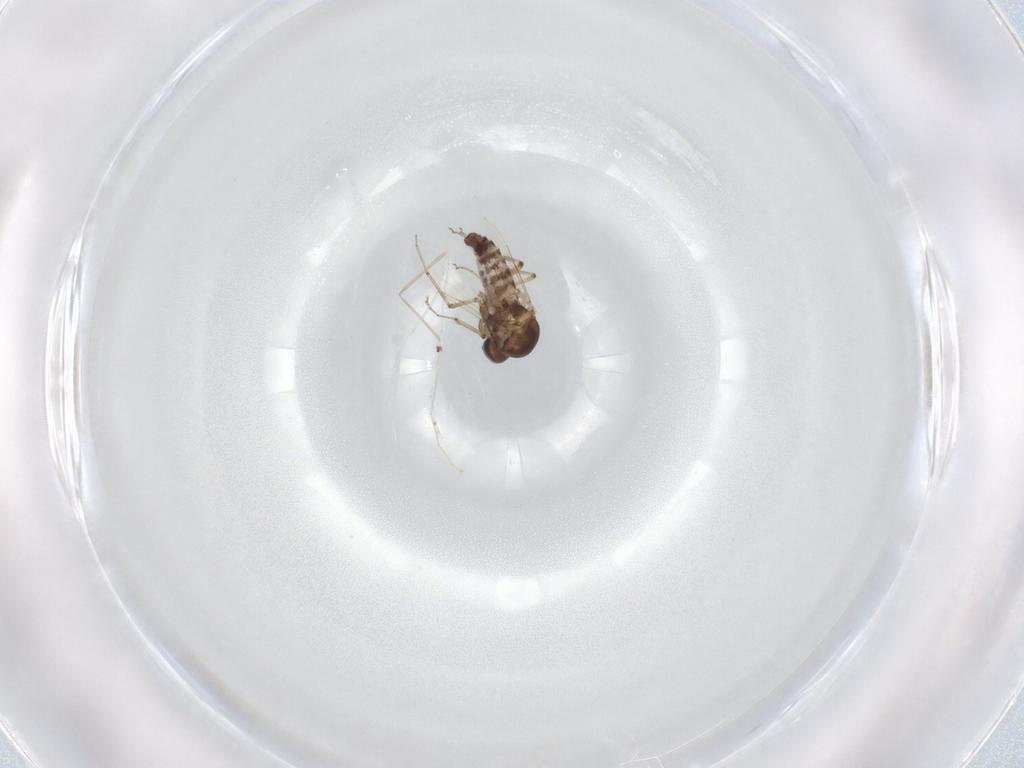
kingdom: Animalia
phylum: Arthropoda
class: Insecta
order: Diptera
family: Ceratopogonidae
